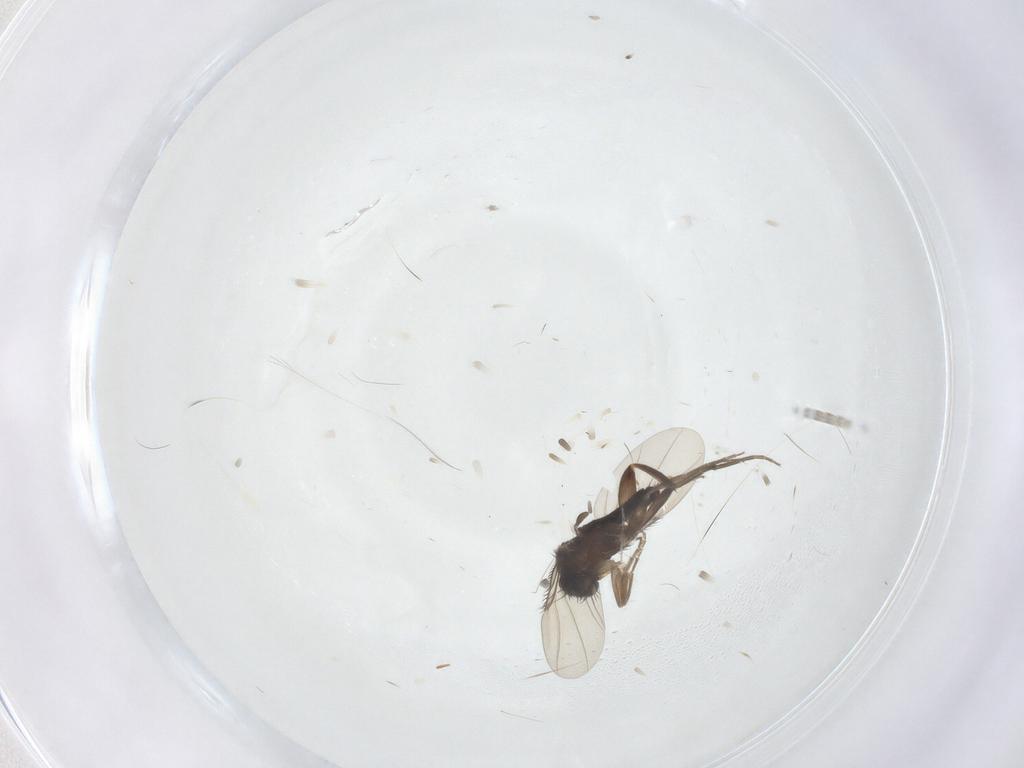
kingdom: Animalia
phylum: Arthropoda
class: Insecta
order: Diptera
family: Phoridae
